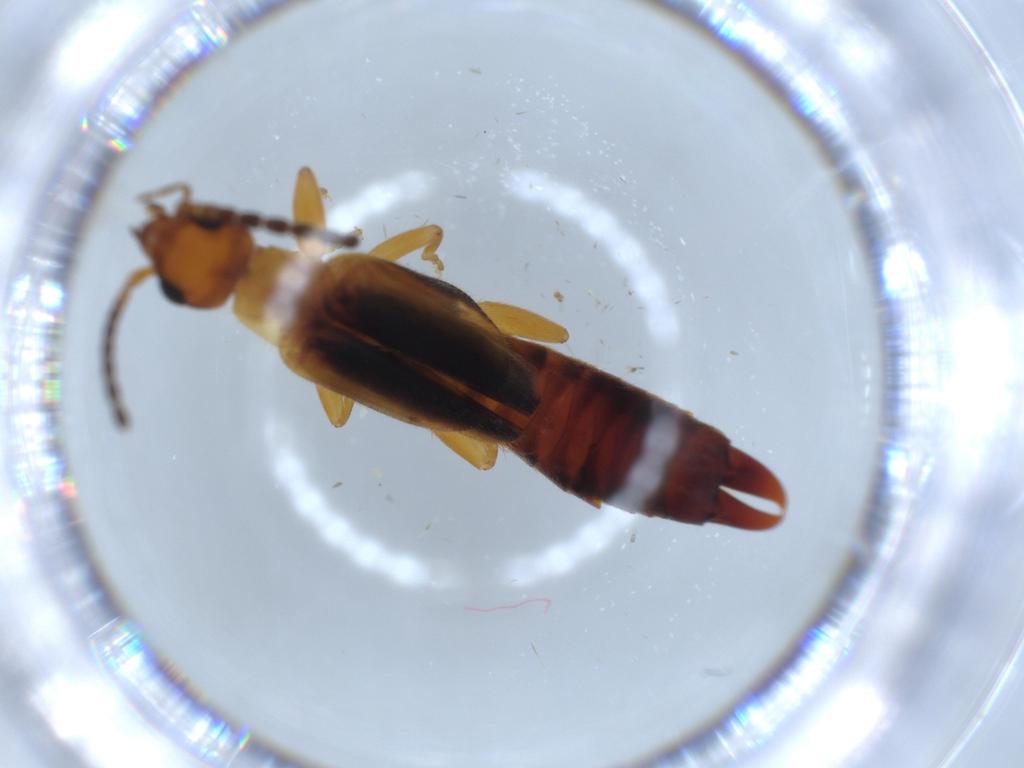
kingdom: Animalia
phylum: Arthropoda
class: Insecta
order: Dermaptera
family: Forficulidae
